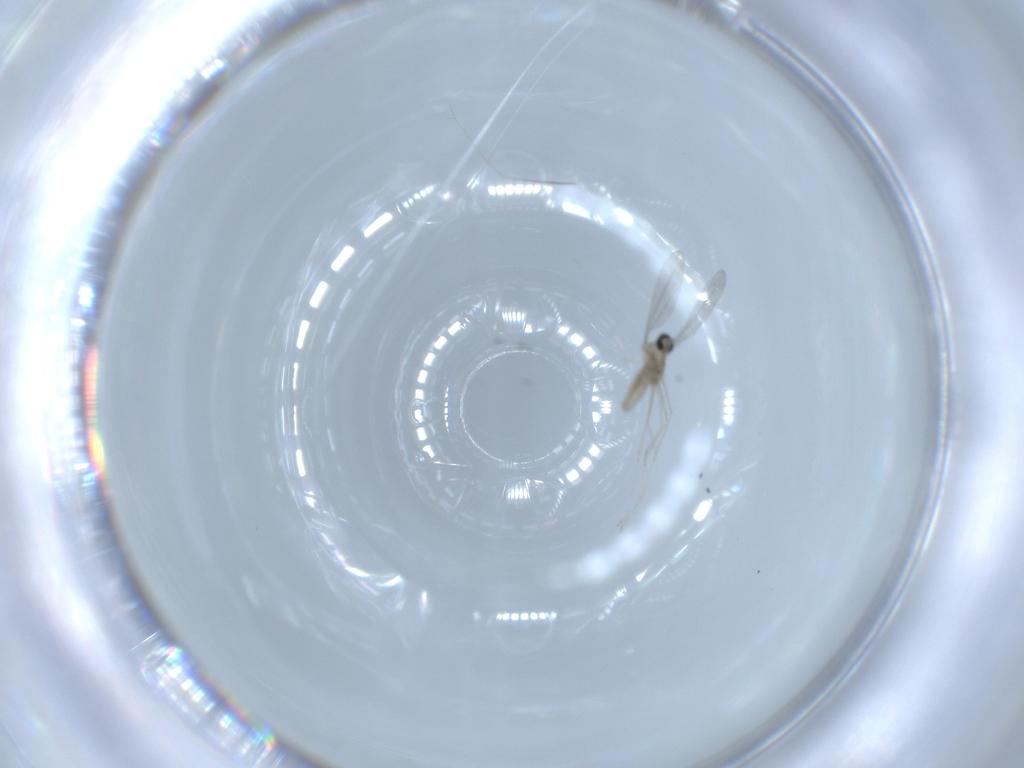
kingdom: Animalia
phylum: Arthropoda
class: Insecta
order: Diptera
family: Cecidomyiidae
